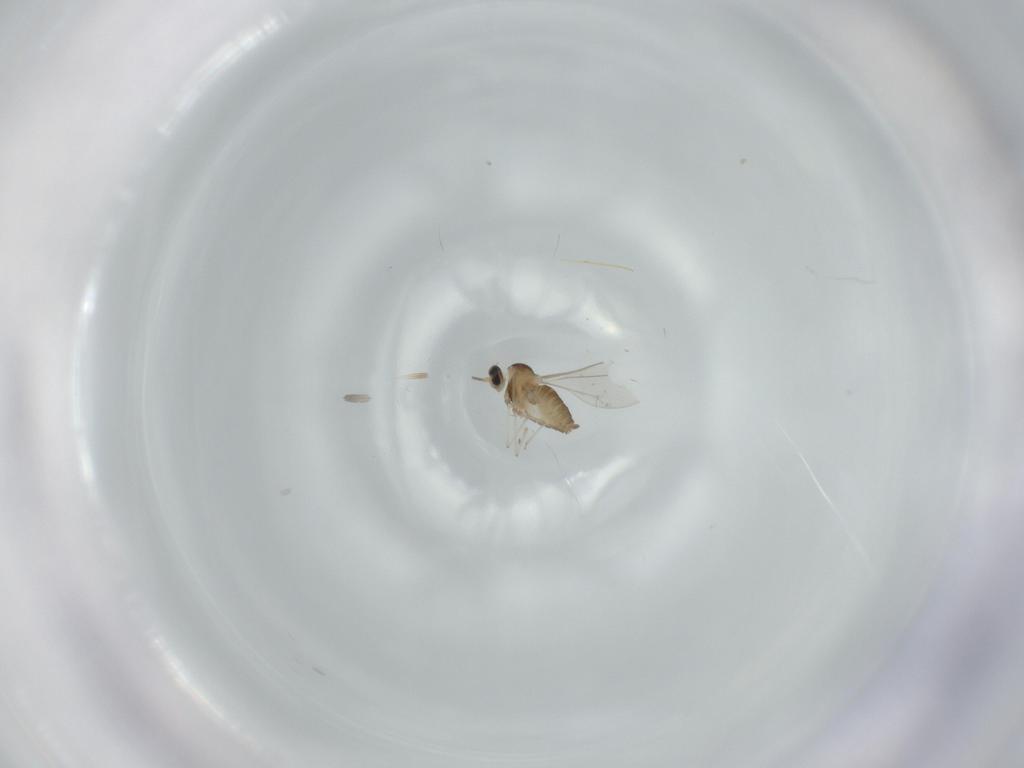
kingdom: Animalia
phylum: Arthropoda
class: Insecta
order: Diptera
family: Cecidomyiidae
